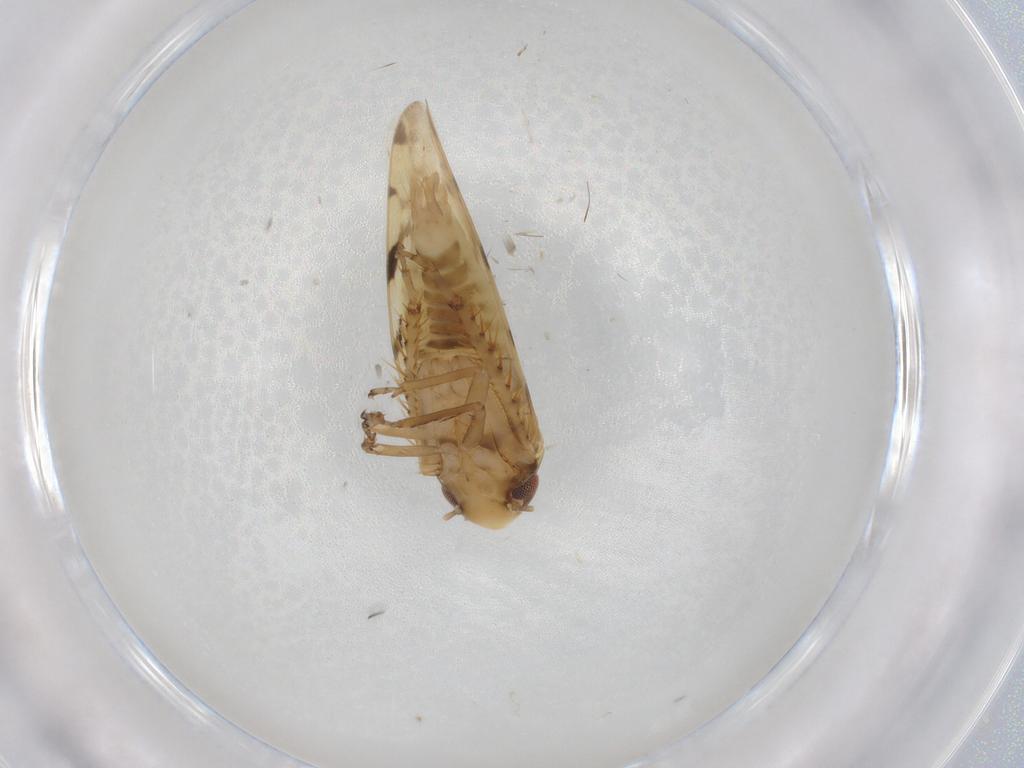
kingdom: Animalia
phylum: Arthropoda
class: Insecta
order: Hemiptera
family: Cicadellidae
